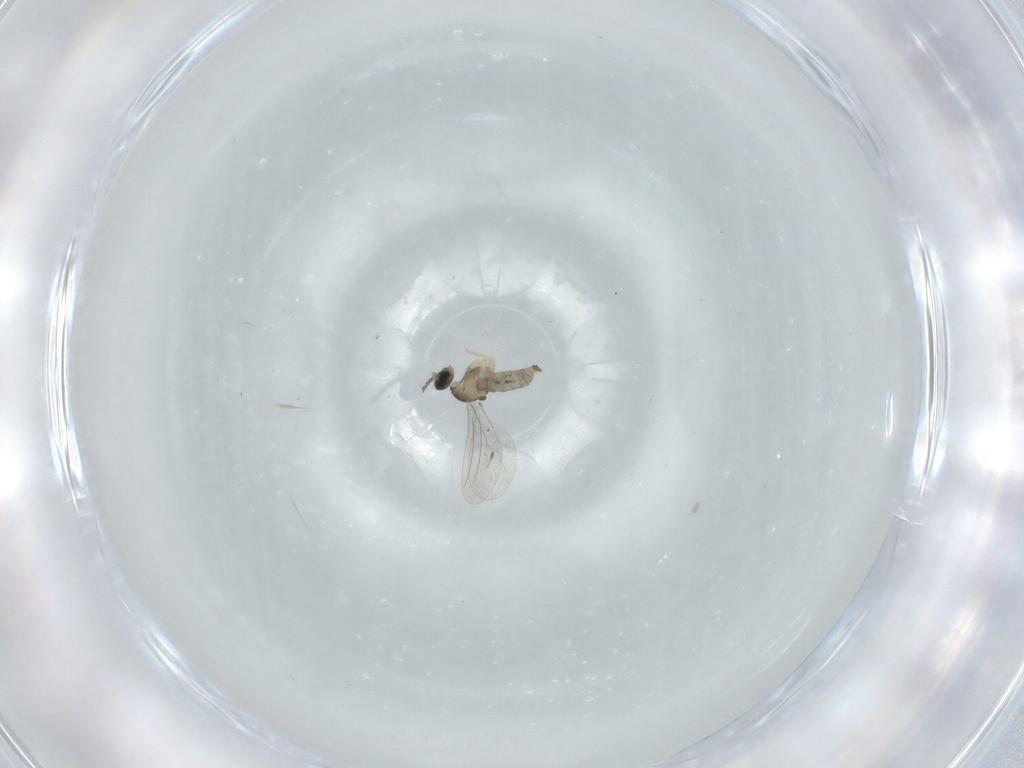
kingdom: Animalia
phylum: Arthropoda
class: Insecta
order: Diptera
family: Cecidomyiidae
